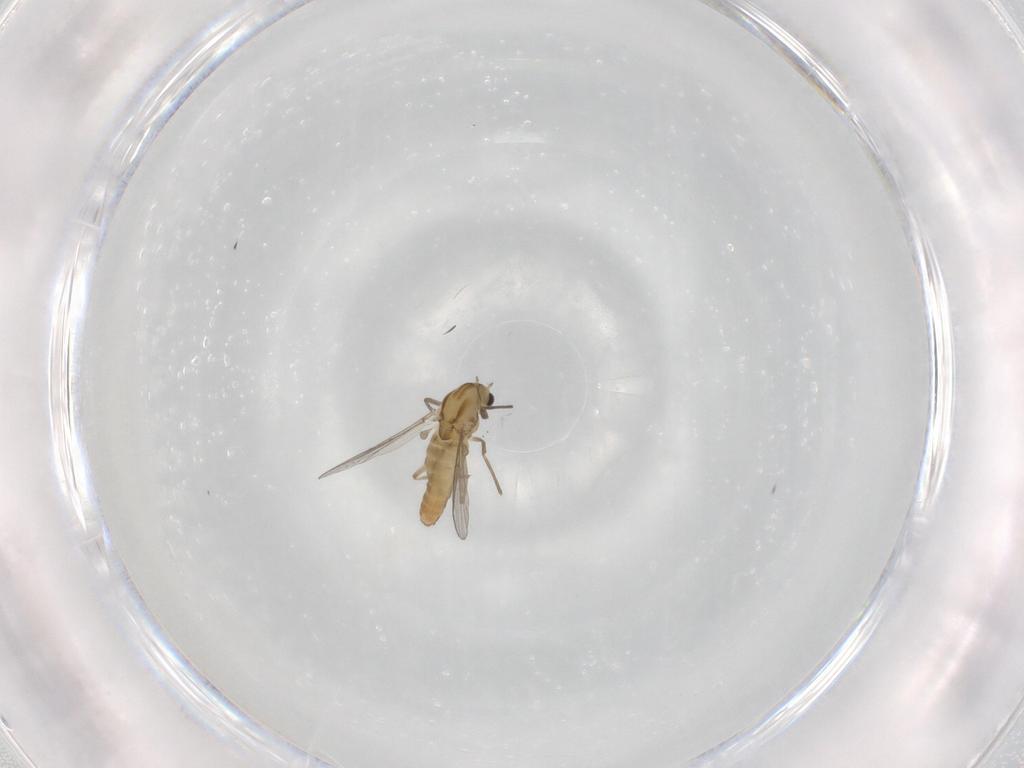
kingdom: Animalia
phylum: Arthropoda
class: Insecta
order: Diptera
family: Chironomidae
